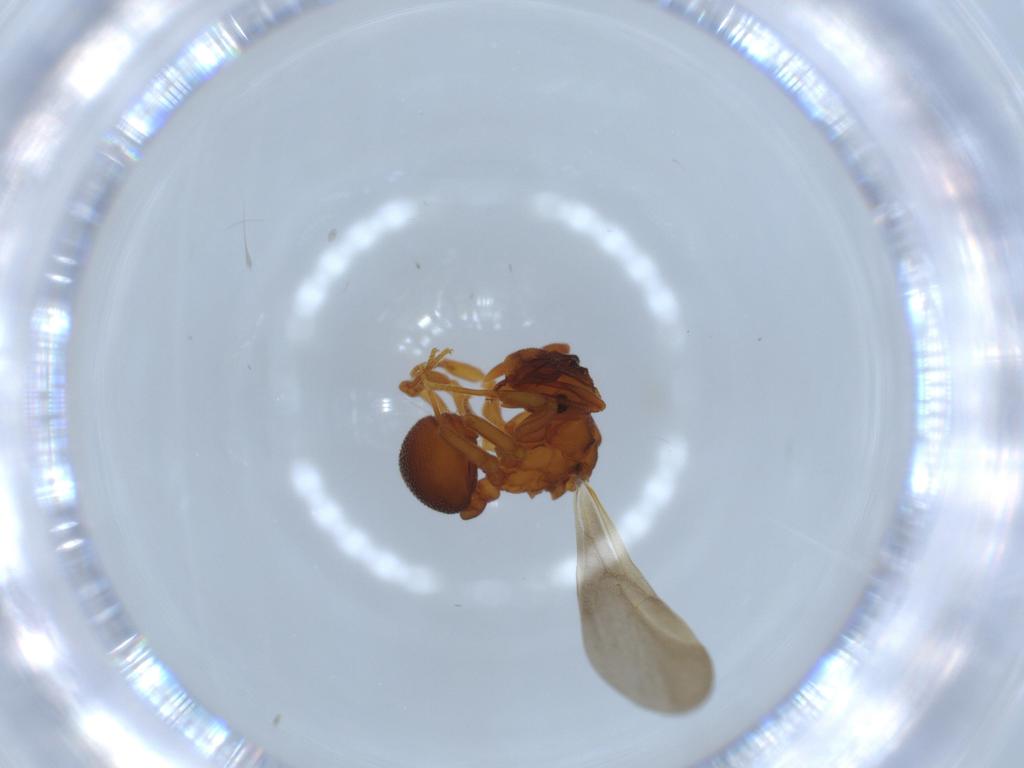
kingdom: Animalia
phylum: Arthropoda
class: Insecta
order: Hymenoptera
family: Formicidae
